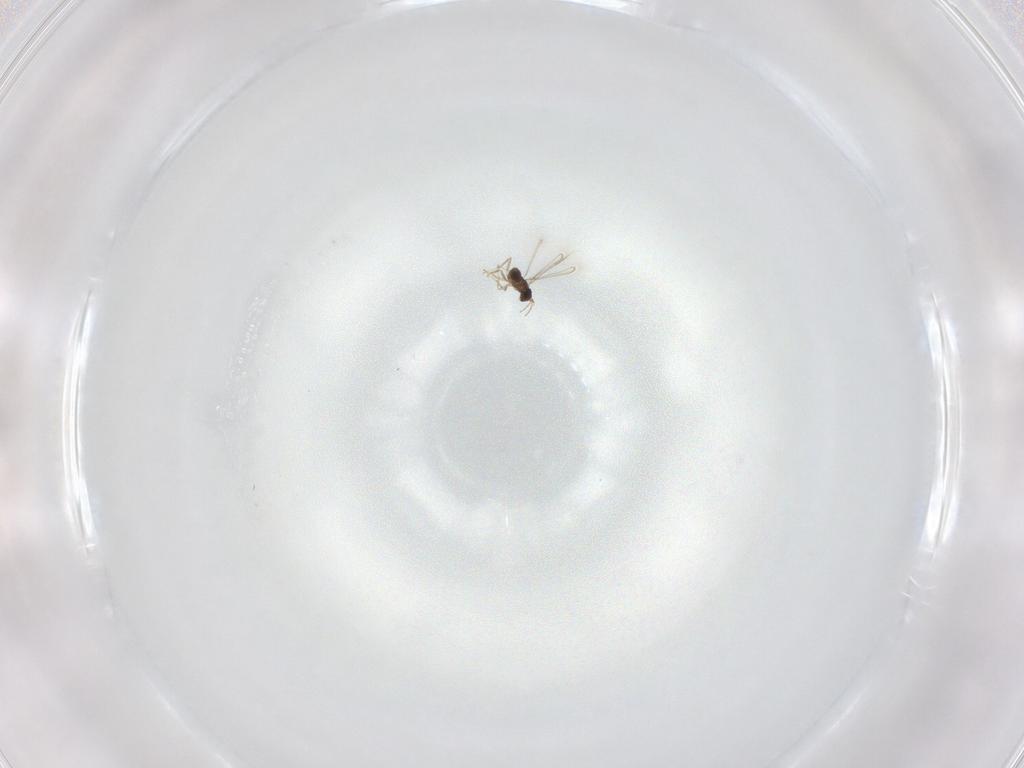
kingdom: Animalia
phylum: Arthropoda
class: Insecta
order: Hymenoptera
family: Mymaridae
